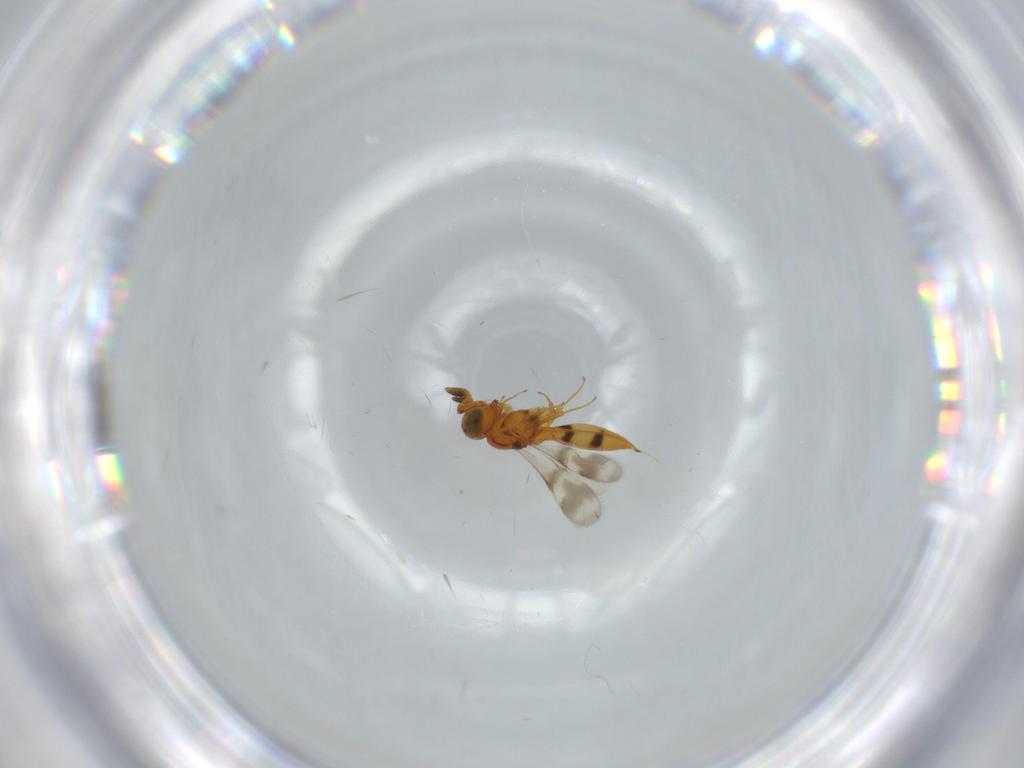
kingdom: Animalia
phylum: Arthropoda
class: Insecta
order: Hymenoptera
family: Scelionidae
